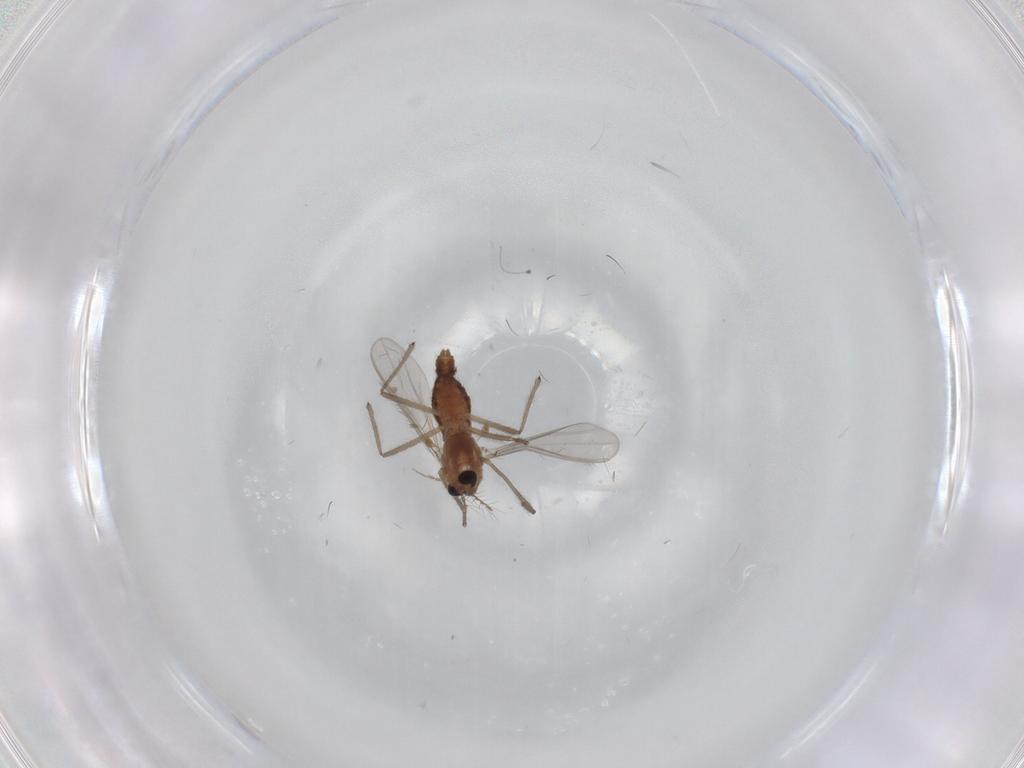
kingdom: Animalia
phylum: Arthropoda
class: Insecta
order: Diptera
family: Chironomidae
